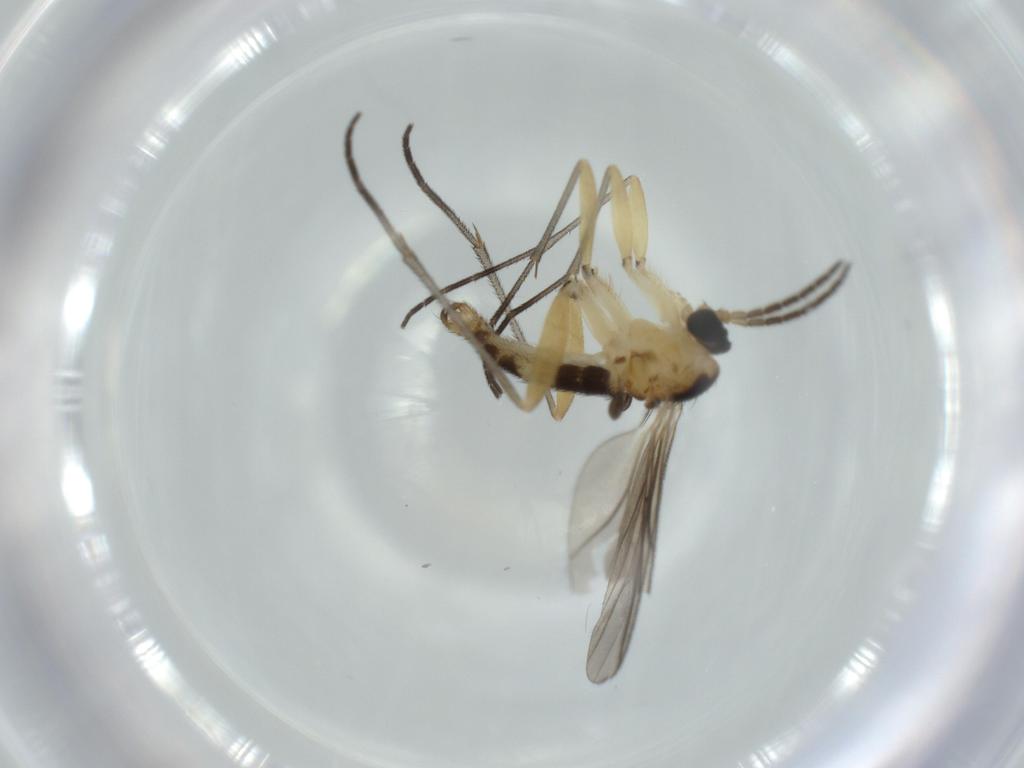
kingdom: Animalia
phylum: Arthropoda
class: Insecta
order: Diptera
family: Sciaridae
